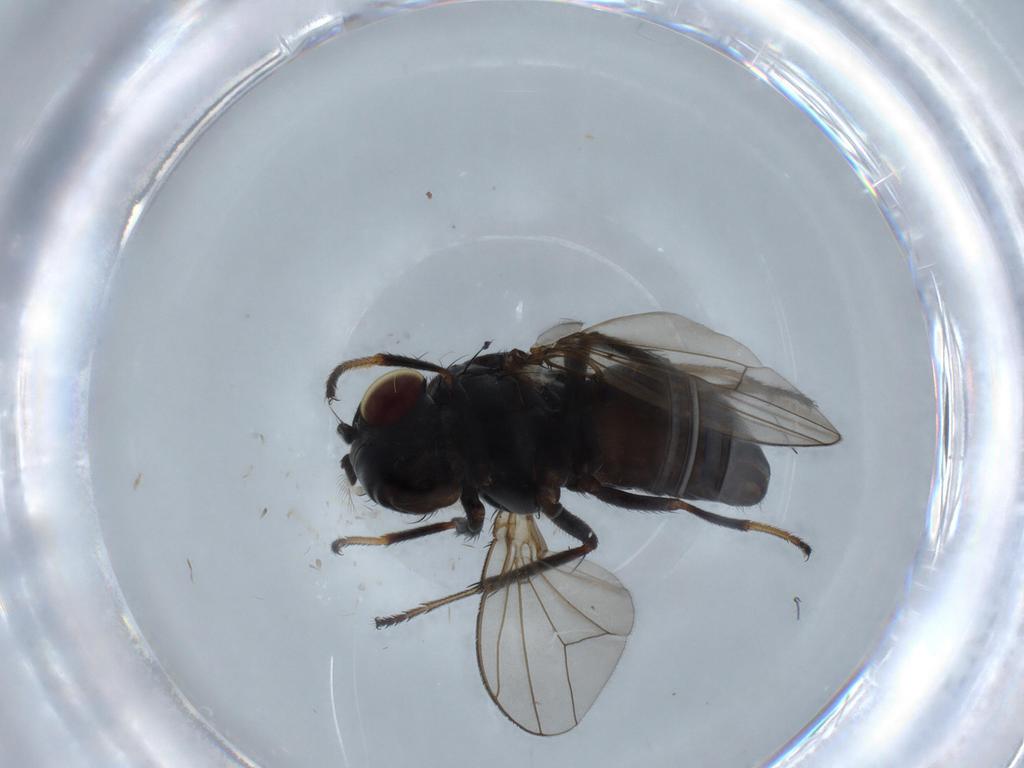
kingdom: Animalia
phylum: Arthropoda
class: Insecta
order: Diptera
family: Ephydridae
